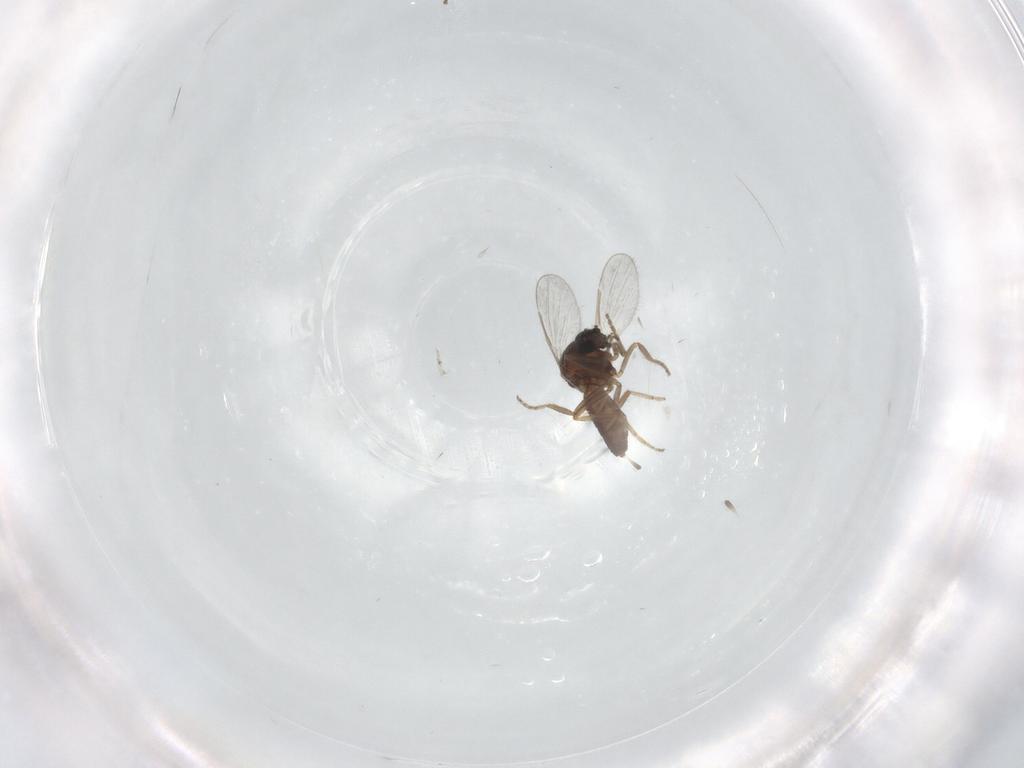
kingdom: Animalia
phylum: Arthropoda
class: Insecta
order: Diptera
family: Ceratopogonidae
